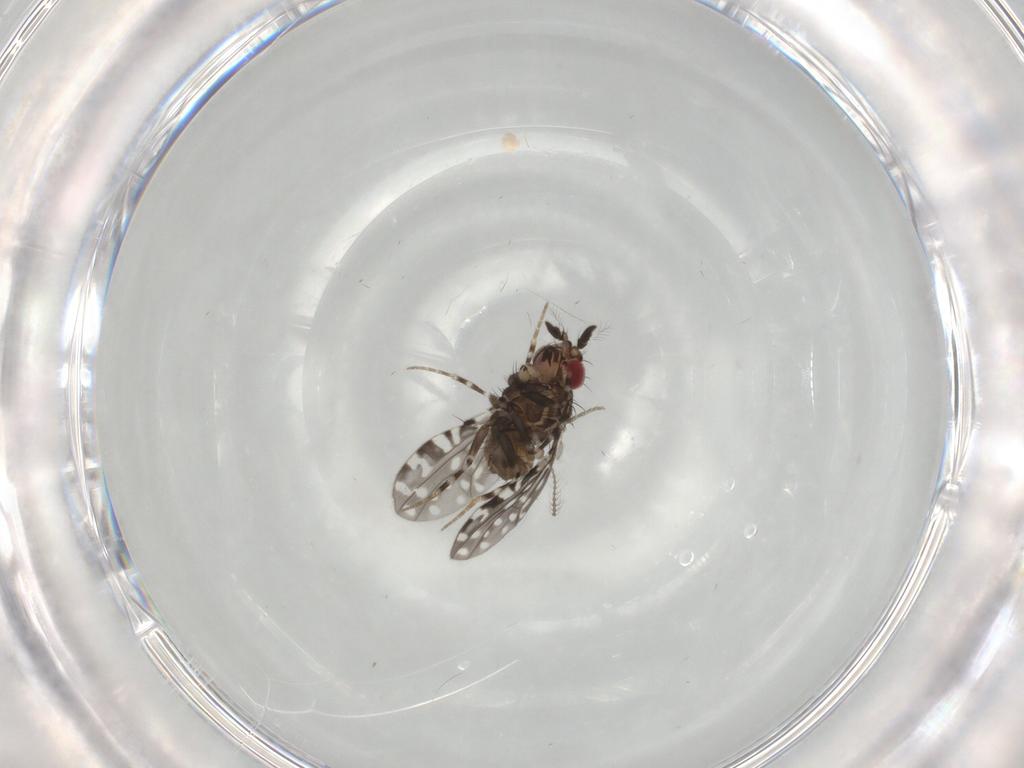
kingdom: Animalia
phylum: Arthropoda
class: Insecta
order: Diptera
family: Drosophilidae
